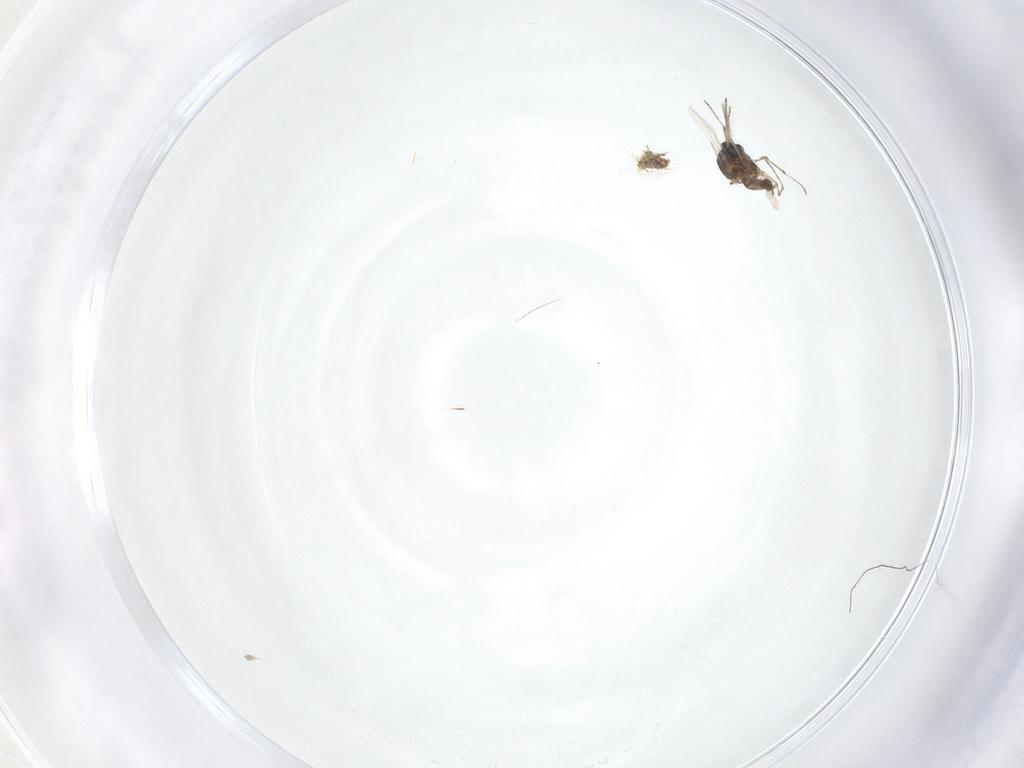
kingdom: Animalia
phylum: Arthropoda
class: Insecta
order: Diptera
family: Ceratopogonidae
